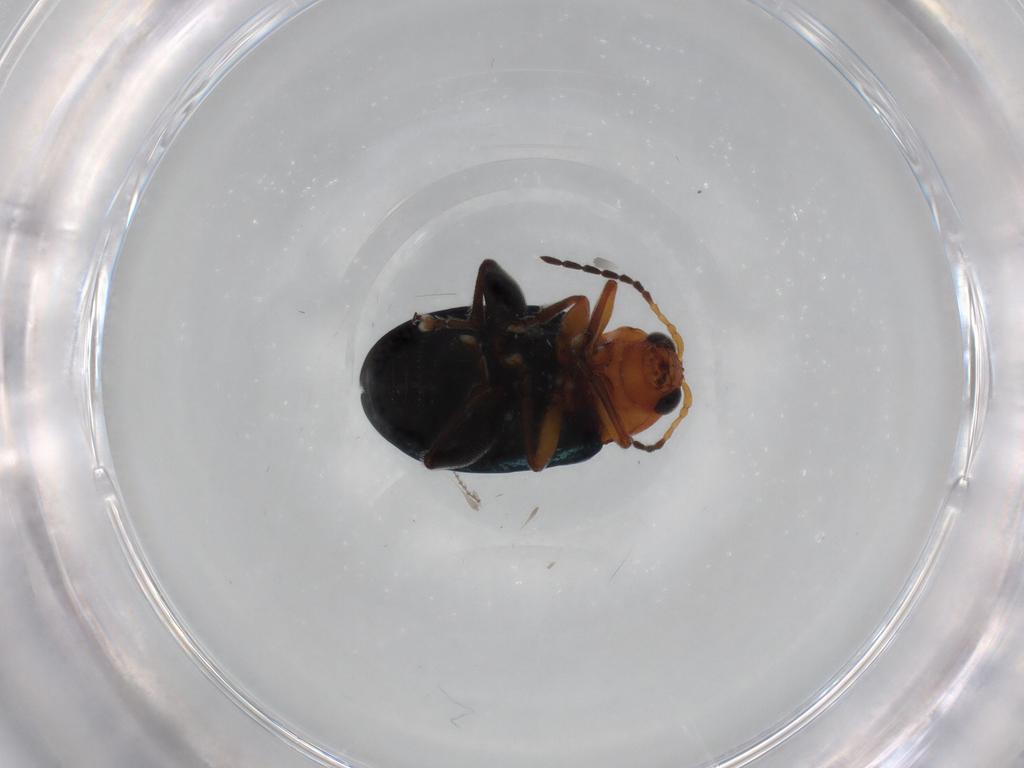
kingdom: Animalia
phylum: Arthropoda
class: Insecta
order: Coleoptera
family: Chrysomelidae
